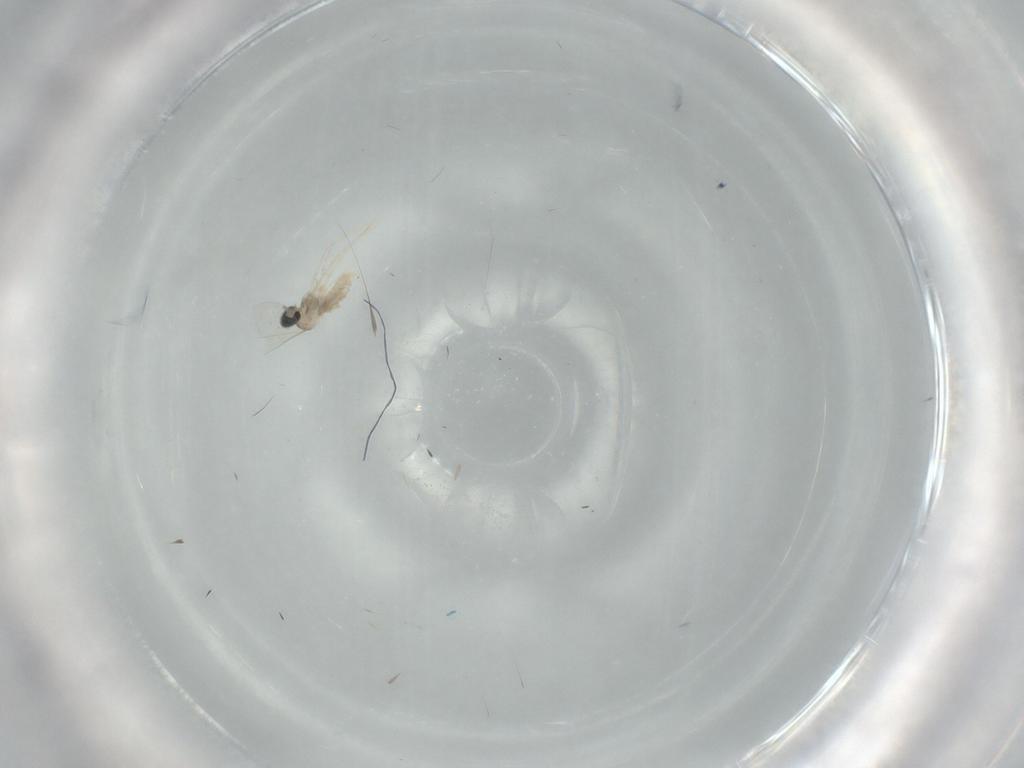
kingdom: Animalia
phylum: Arthropoda
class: Insecta
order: Diptera
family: Cecidomyiidae
